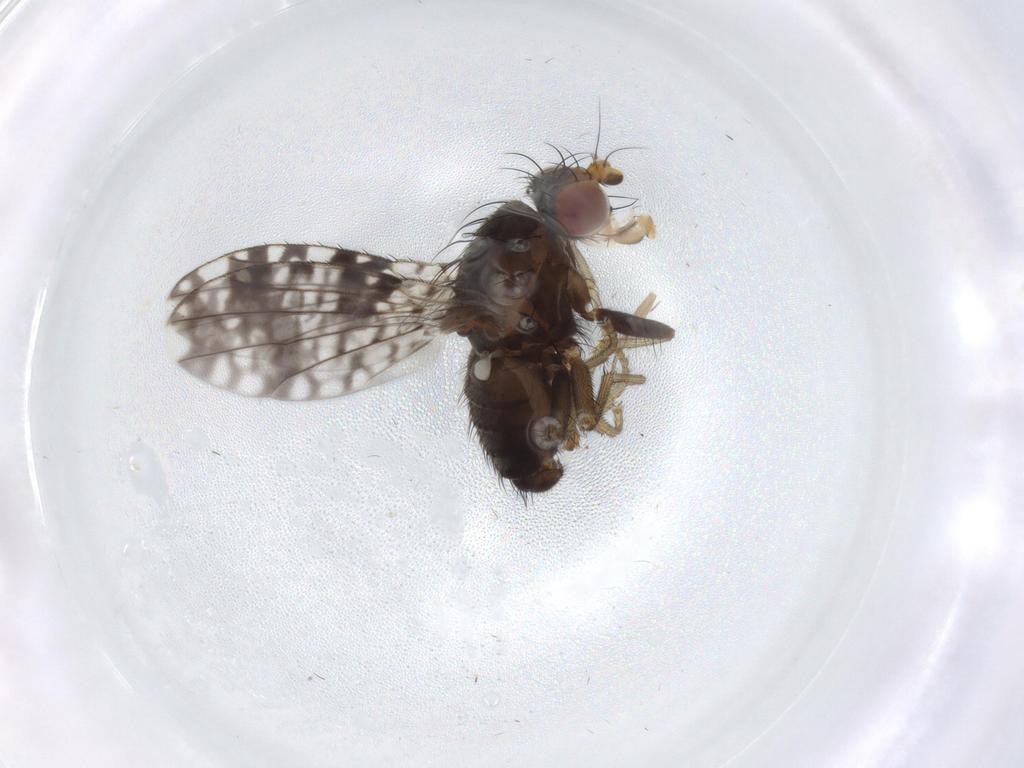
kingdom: Animalia
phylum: Arthropoda
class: Insecta
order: Diptera
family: Tephritidae
